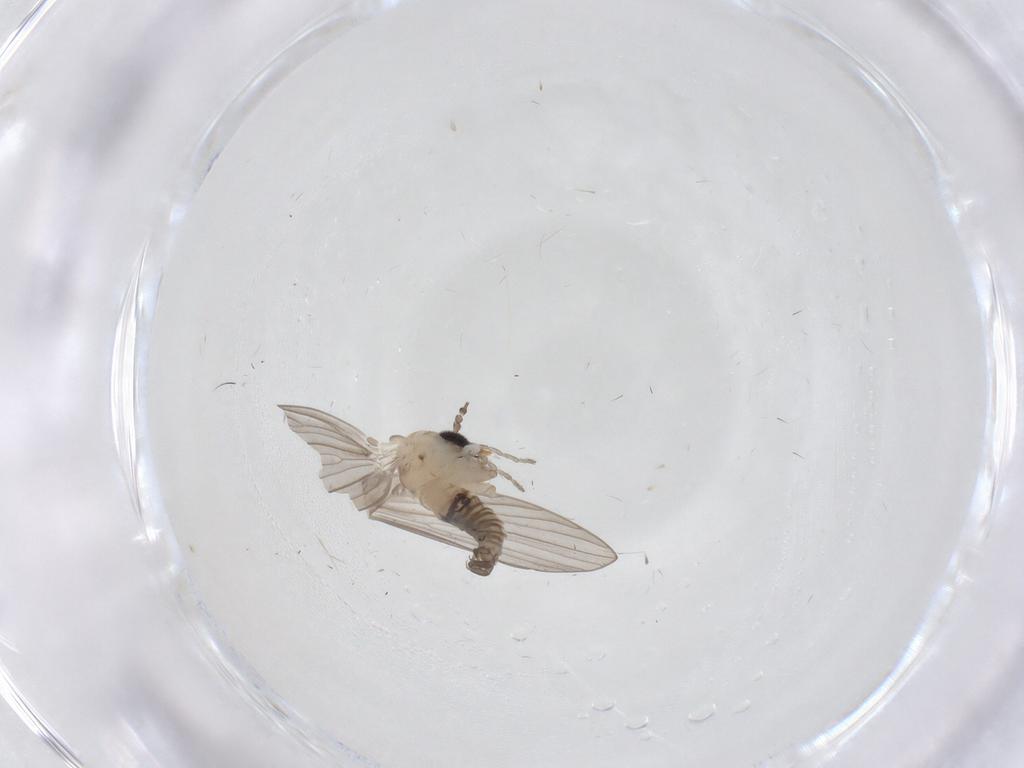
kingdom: Animalia
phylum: Arthropoda
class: Insecta
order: Diptera
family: Psychodidae
